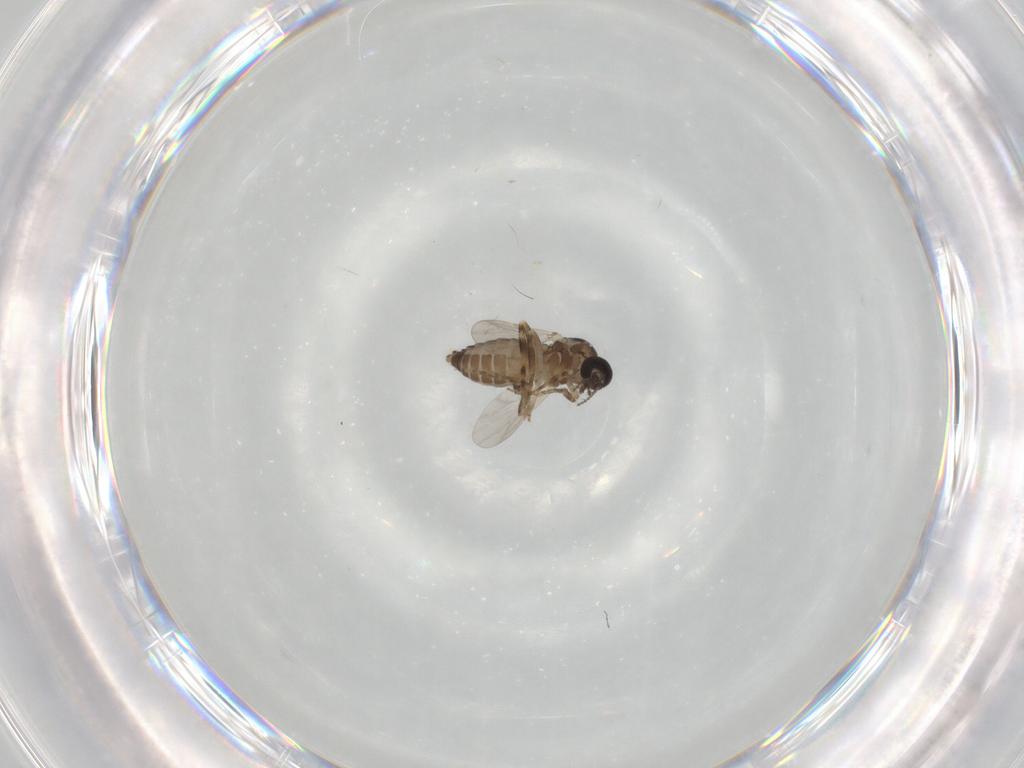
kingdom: Animalia
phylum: Arthropoda
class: Insecta
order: Diptera
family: Ceratopogonidae
